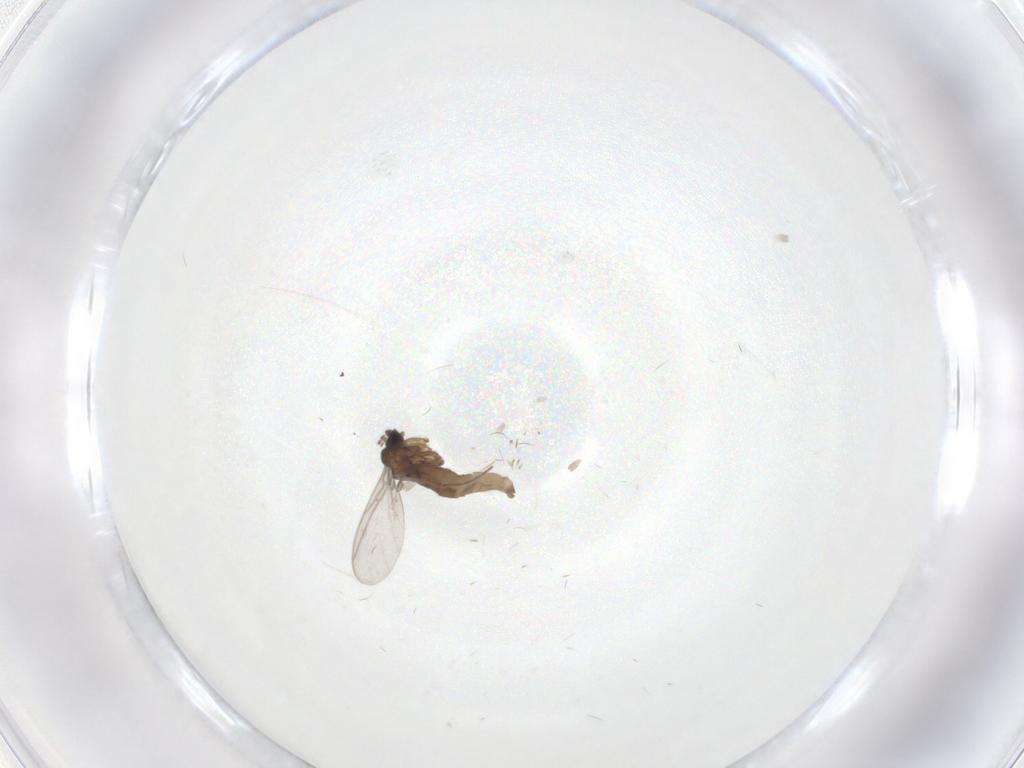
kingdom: Animalia
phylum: Arthropoda
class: Insecta
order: Diptera
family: Sciaridae
